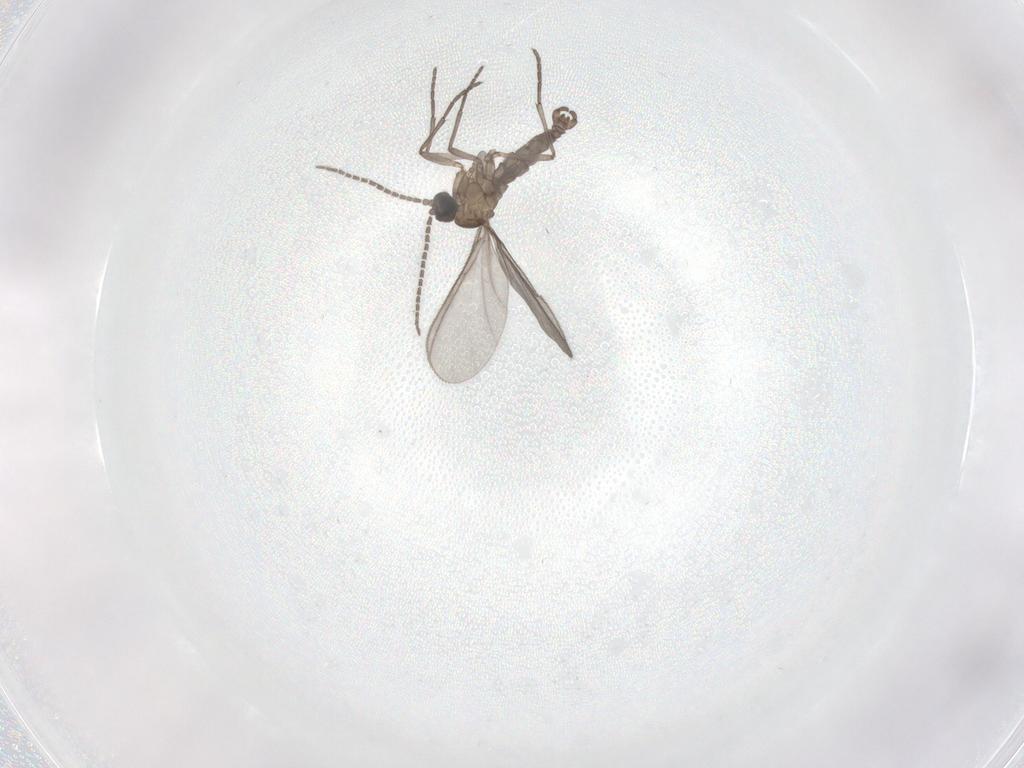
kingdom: Animalia
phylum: Arthropoda
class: Insecta
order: Diptera
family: Sciaridae
